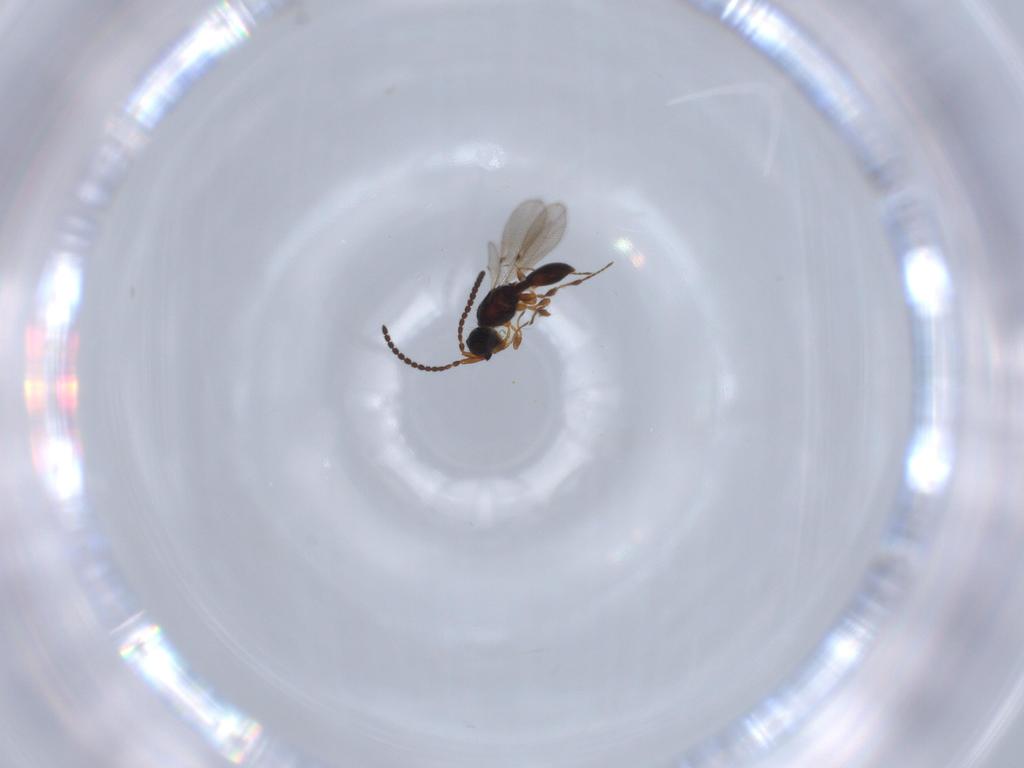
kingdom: Animalia
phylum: Arthropoda
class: Insecta
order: Hymenoptera
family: Diapriidae
